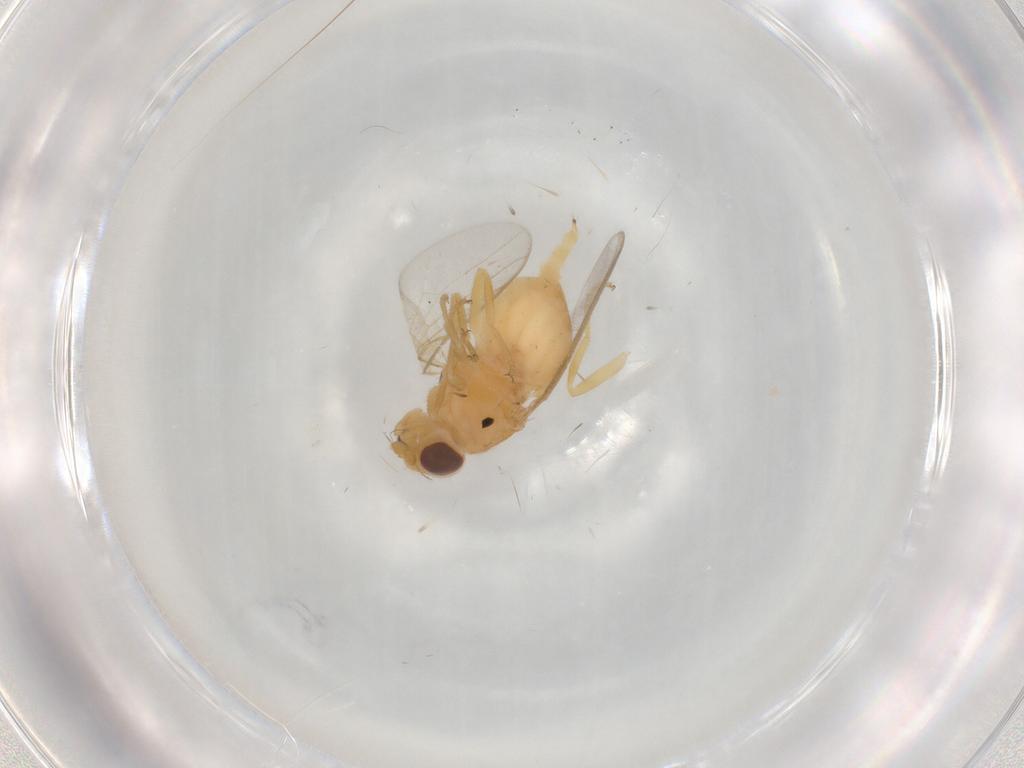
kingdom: Animalia
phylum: Arthropoda
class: Insecta
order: Diptera
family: Chloropidae
